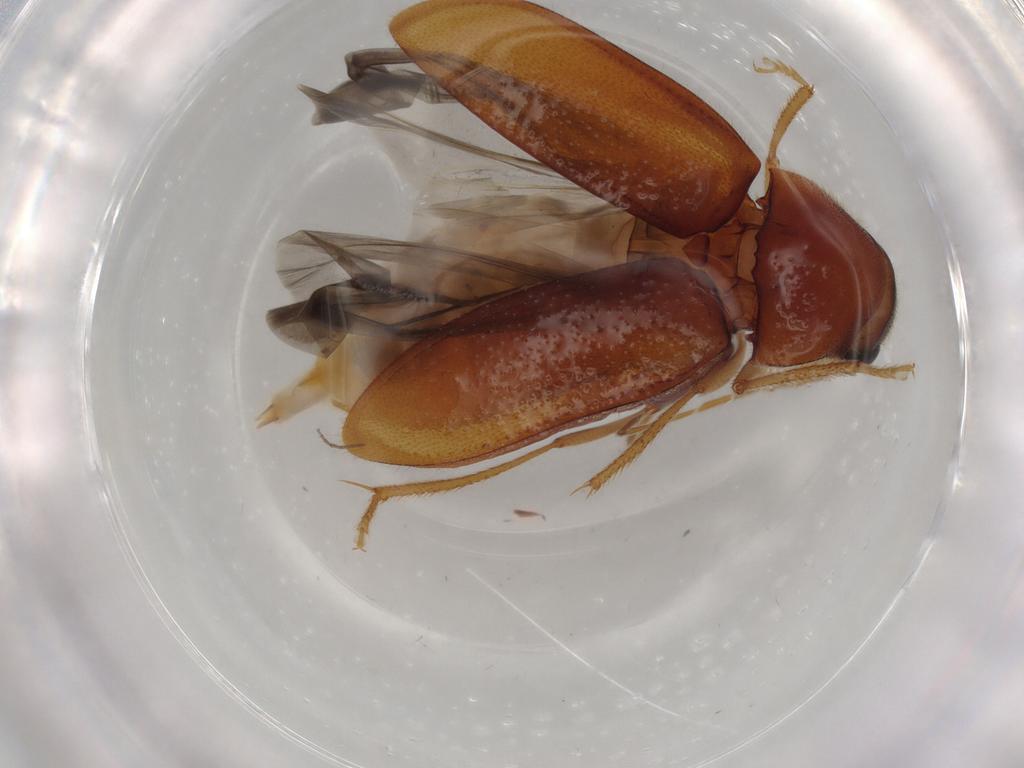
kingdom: Animalia
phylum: Arthropoda
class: Insecta
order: Coleoptera
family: Ptilodactylidae
